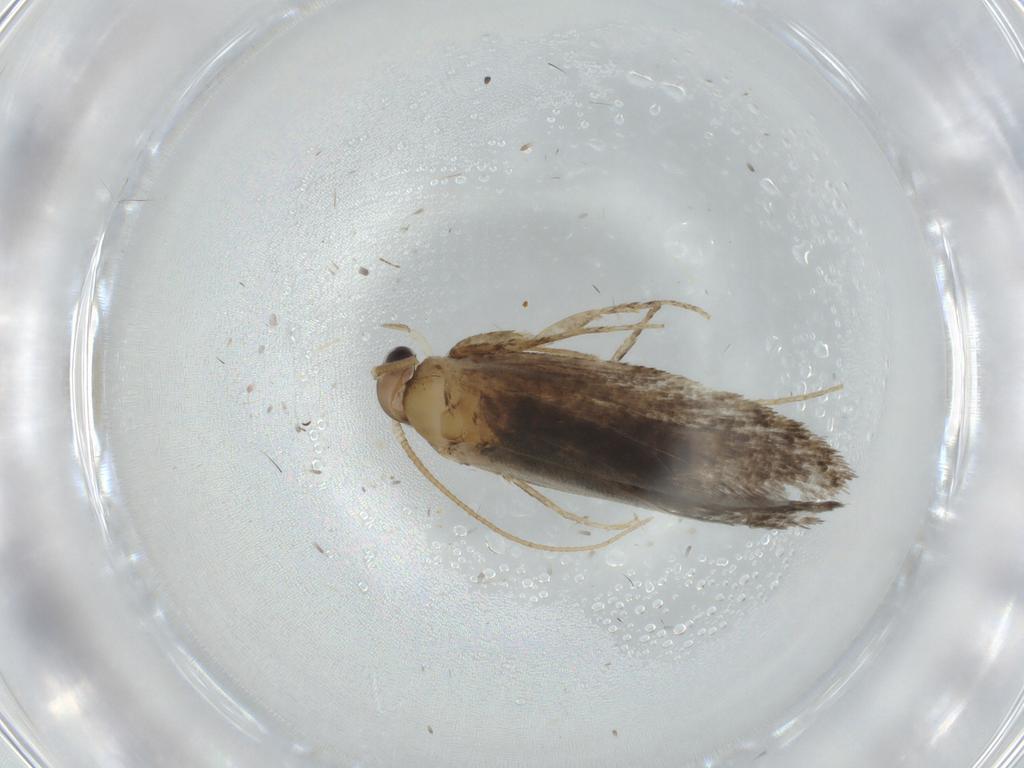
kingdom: Animalia
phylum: Arthropoda
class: Insecta
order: Lepidoptera
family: Tineidae
